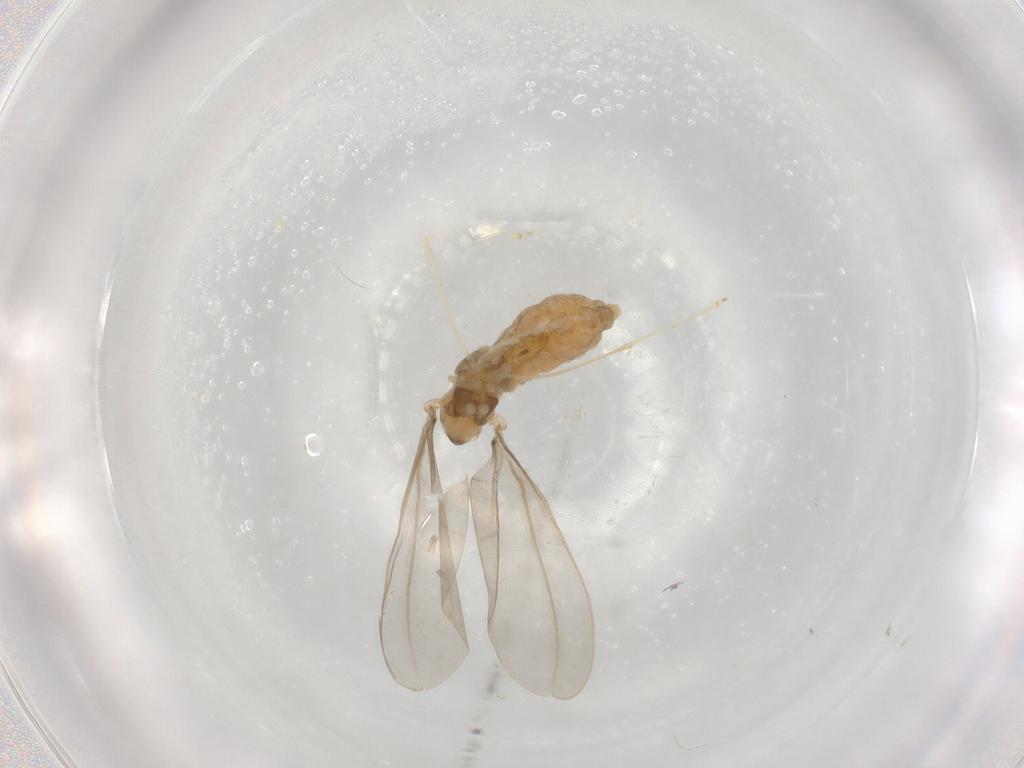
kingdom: Animalia
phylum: Arthropoda
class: Insecta
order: Diptera
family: Cecidomyiidae
